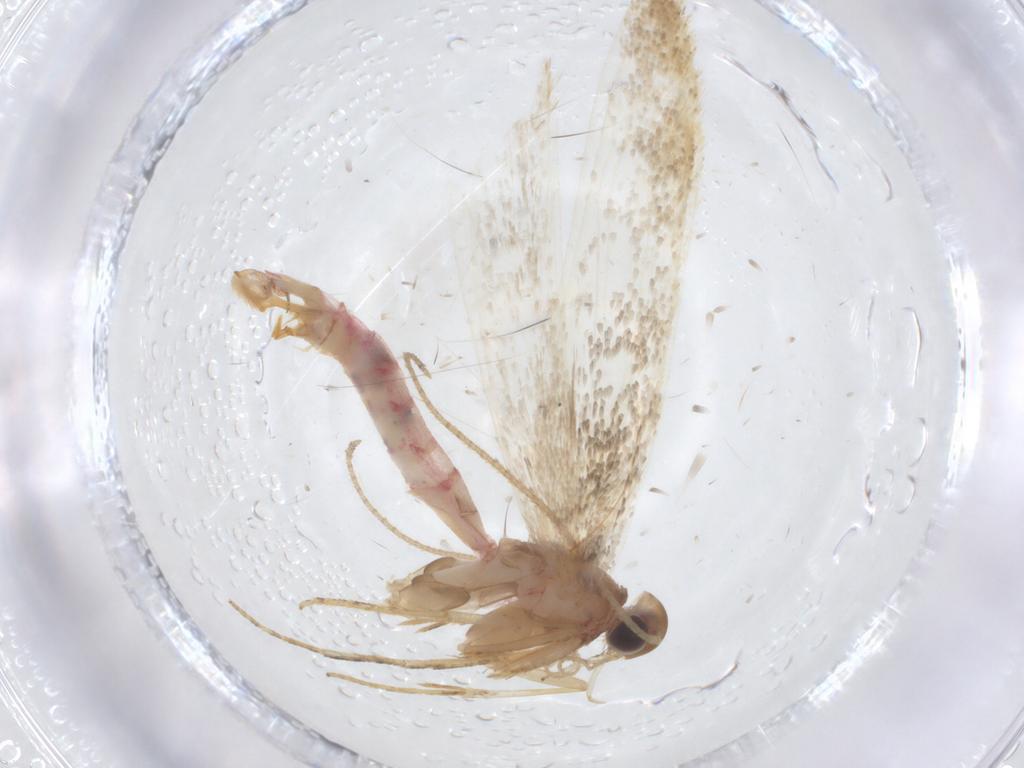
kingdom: Animalia
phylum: Arthropoda
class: Insecta
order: Lepidoptera
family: Crambidae
